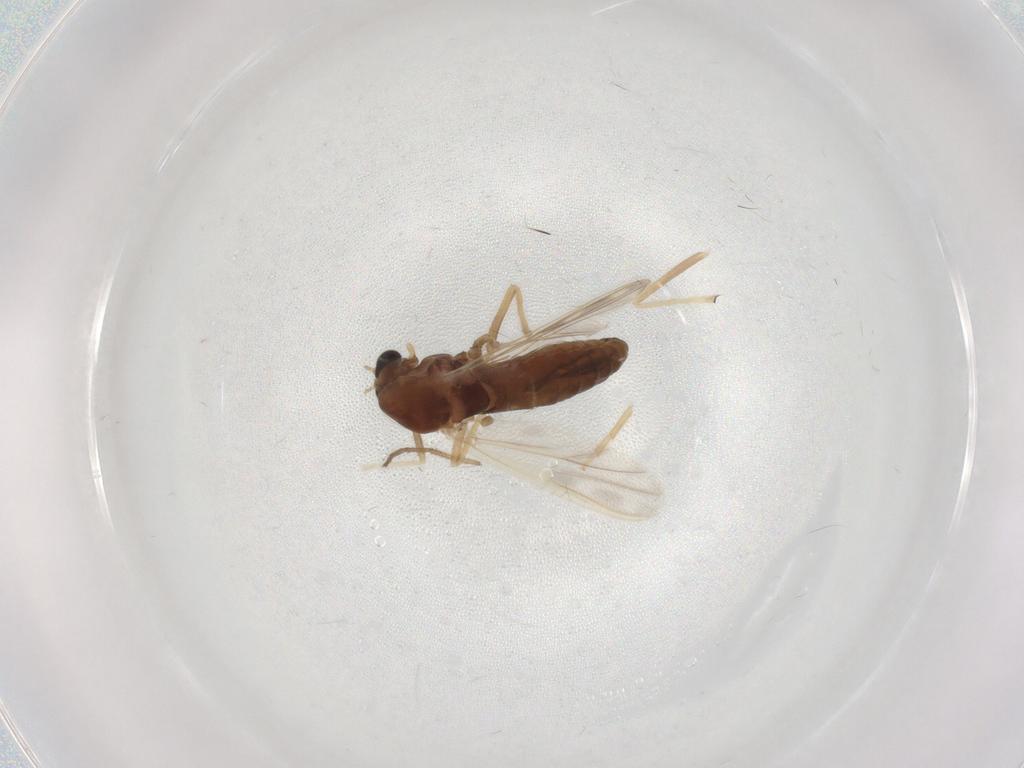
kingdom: Animalia
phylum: Arthropoda
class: Insecta
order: Diptera
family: Chironomidae
